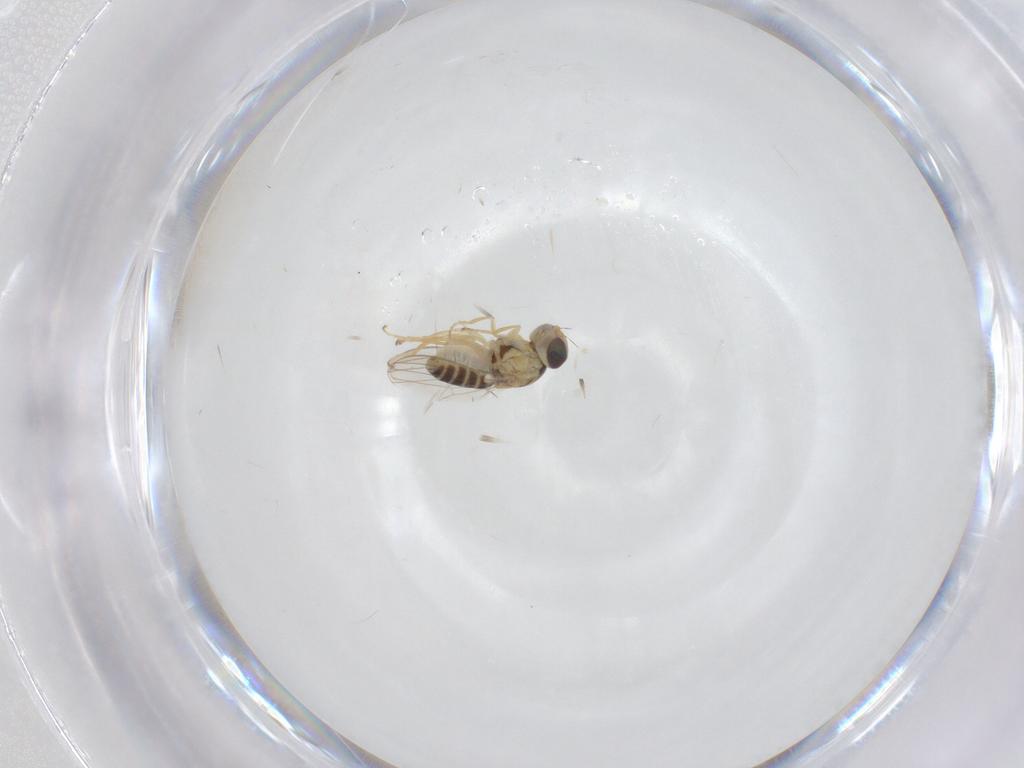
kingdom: Animalia
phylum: Arthropoda
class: Insecta
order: Diptera
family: Chyromyidae
